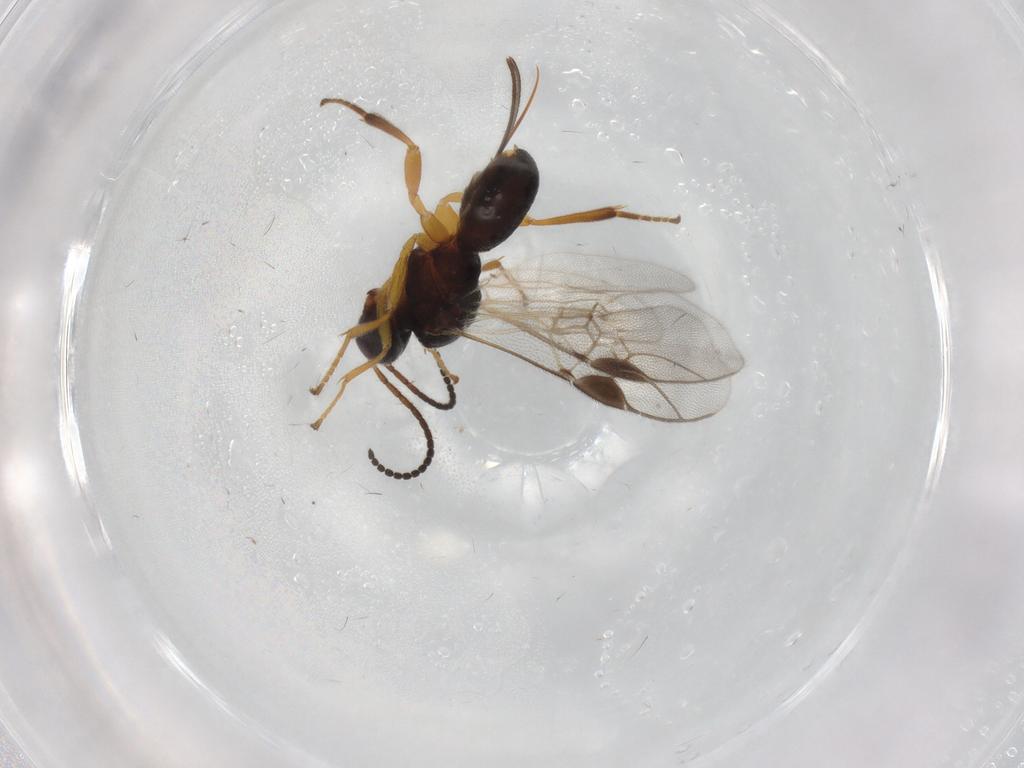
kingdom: Animalia
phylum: Arthropoda
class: Insecta
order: Hymenoptera
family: Braconidae
